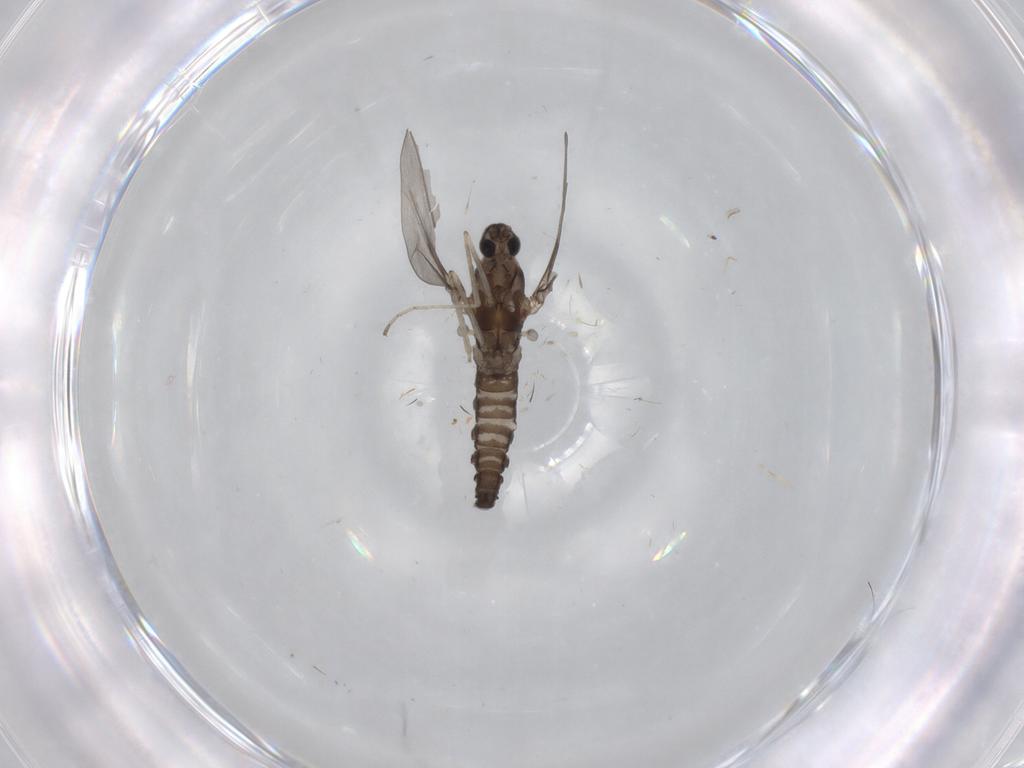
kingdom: Animalia
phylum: Arthropoda
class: Insecta
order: Diptera
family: Cecidomyiidae
